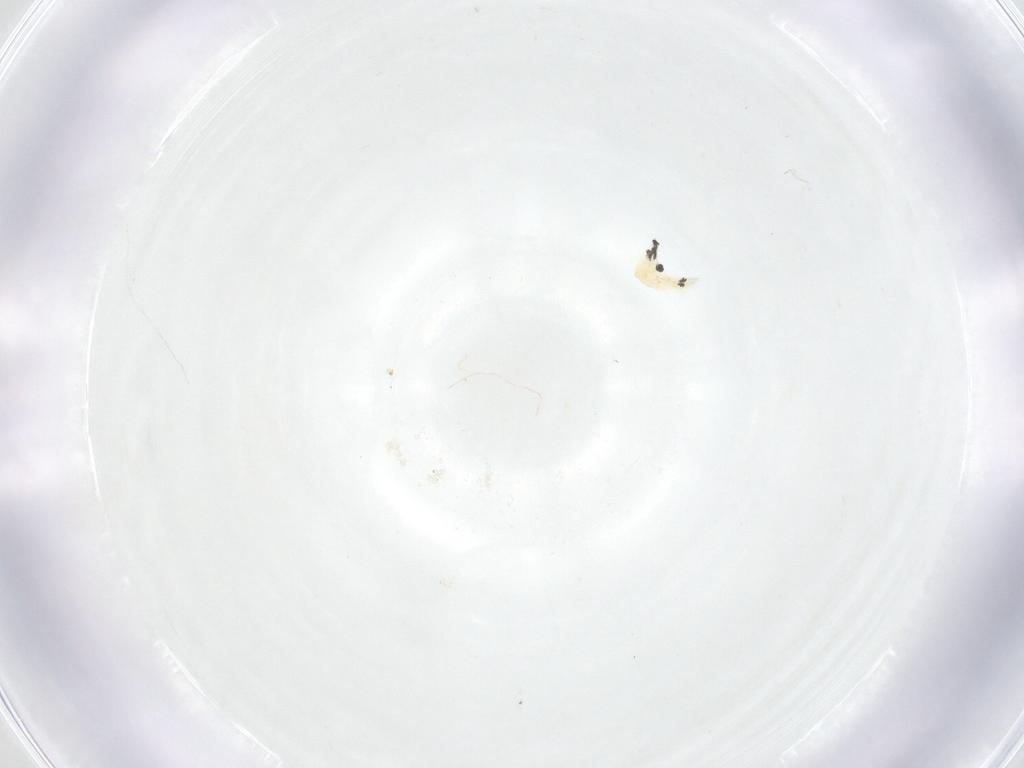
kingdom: Animalia
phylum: Arthropoda
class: Insecta
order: Diptera
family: Fergusoninidae
